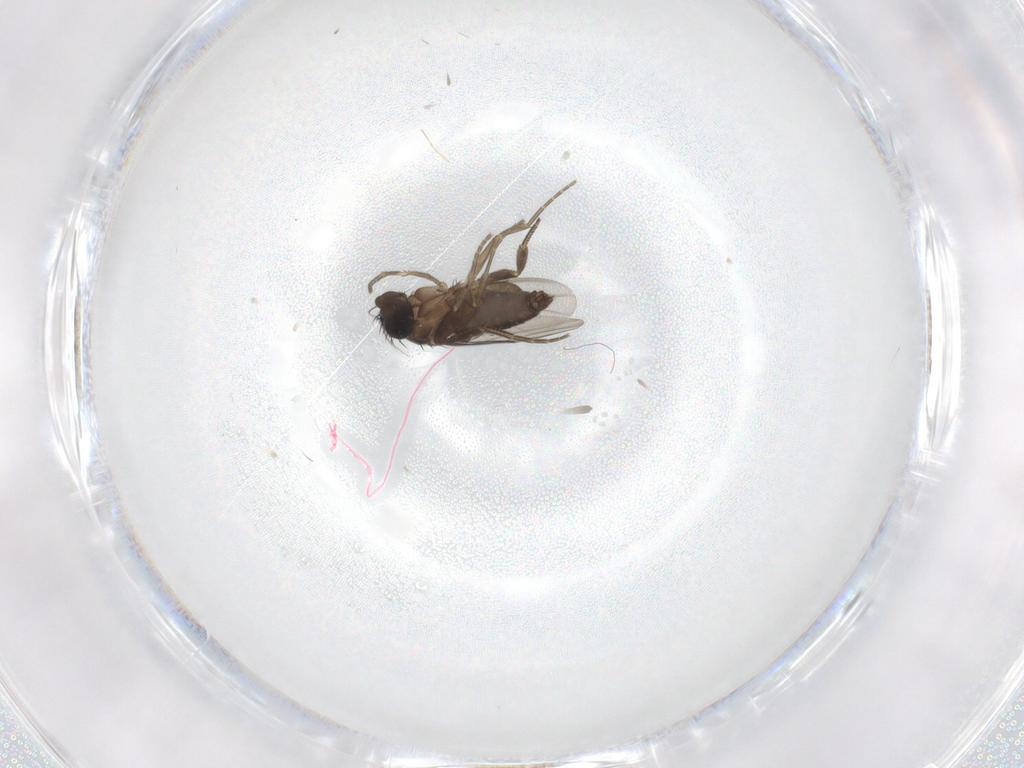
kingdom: Animalia
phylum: Arthropoda
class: Insecta
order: Diptera
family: Phoridae
